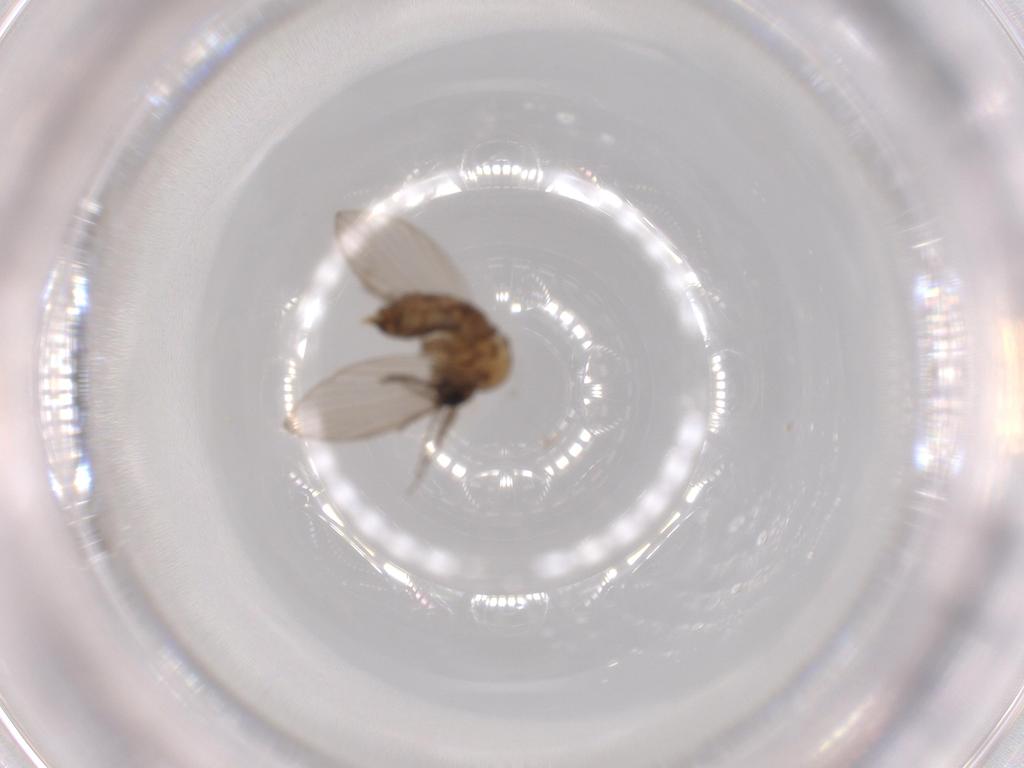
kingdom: Animalia
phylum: Arthropoda
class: Insecta
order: Diptera
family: Psychodidae
